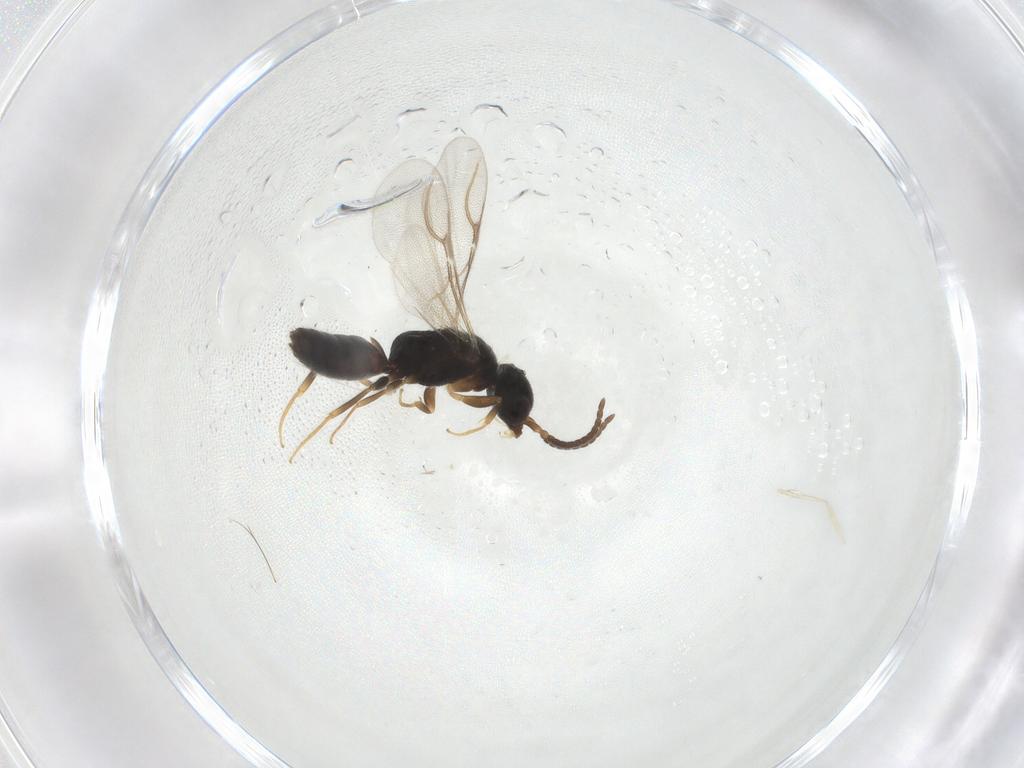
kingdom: Animalia
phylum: Arthropoda
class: Insecta
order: Hymenoptera
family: Bethylidae
